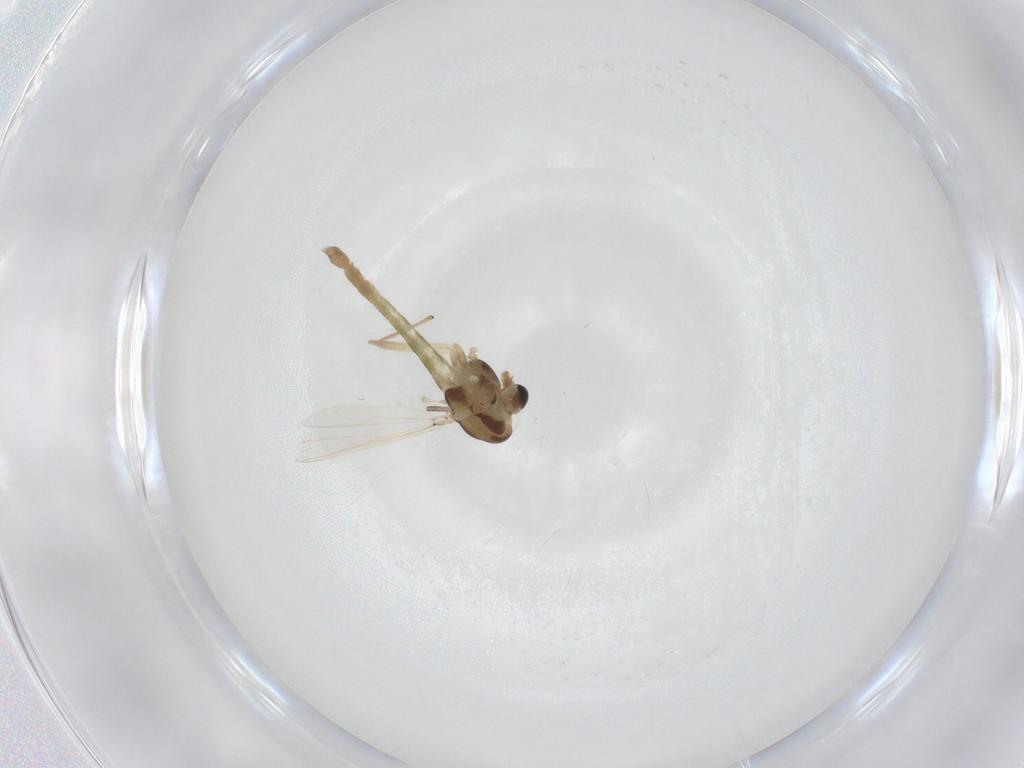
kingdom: Animalia
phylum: Arthropoda
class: Insecta
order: Diptera
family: Chironomidae
